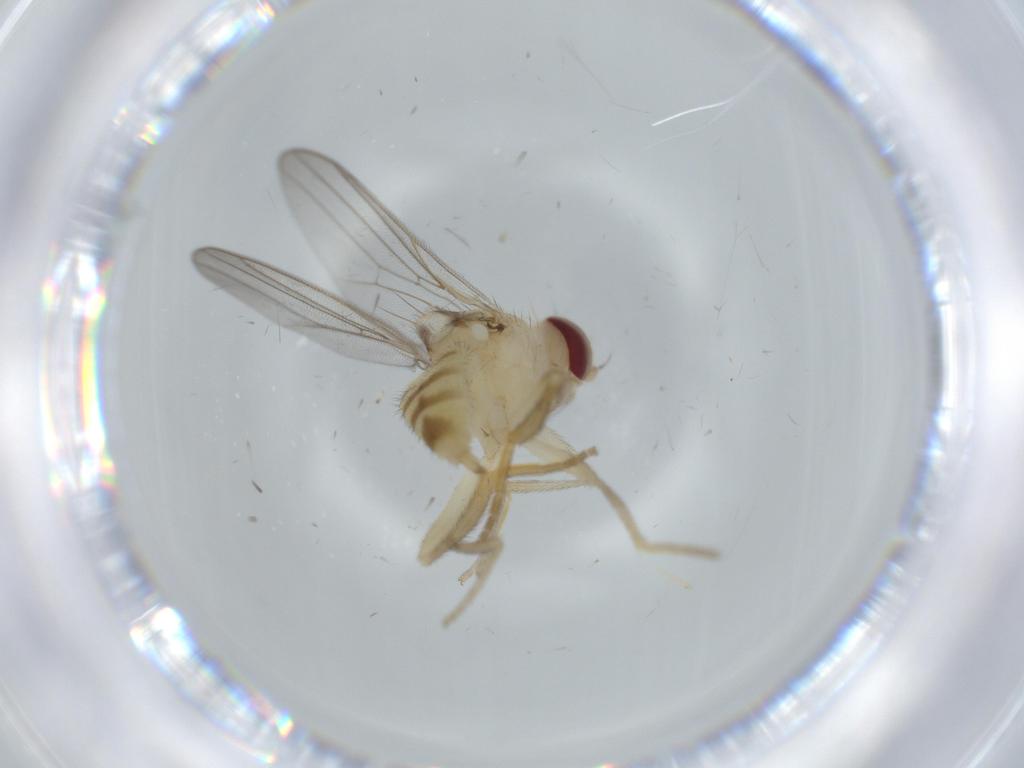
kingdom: Animalia
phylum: Arthropoda
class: Insecta
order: Diptera
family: Chloropidae
